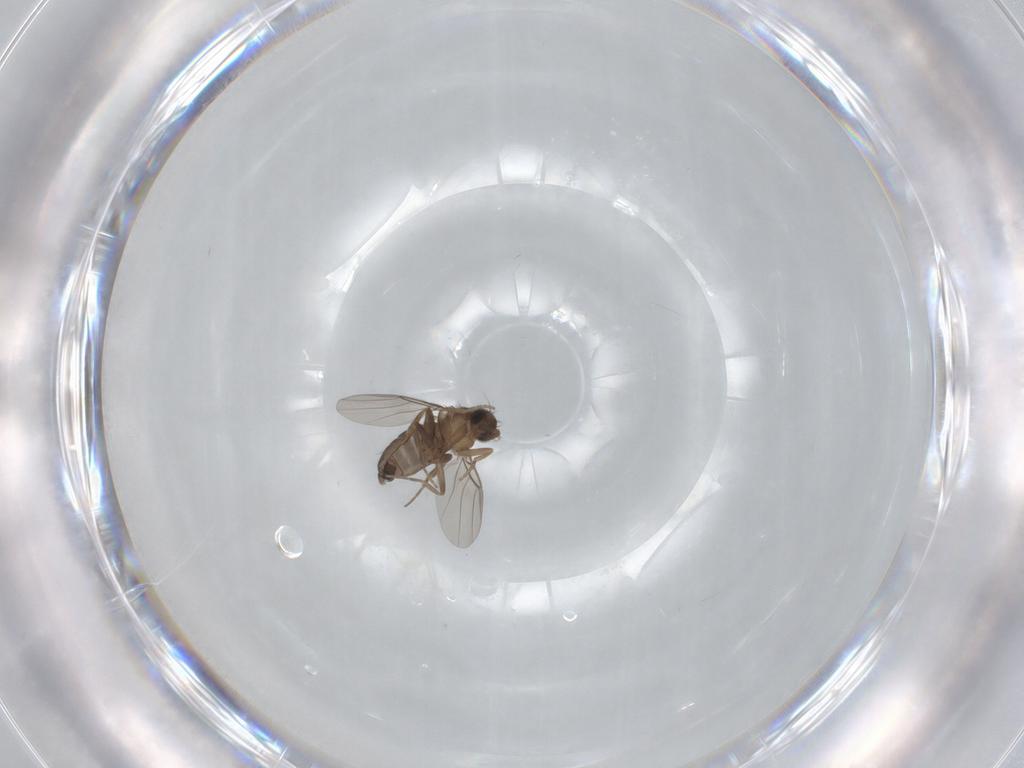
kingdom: Animalia
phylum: Arthropoda
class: Insecta
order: Diptera
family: Phoridae
